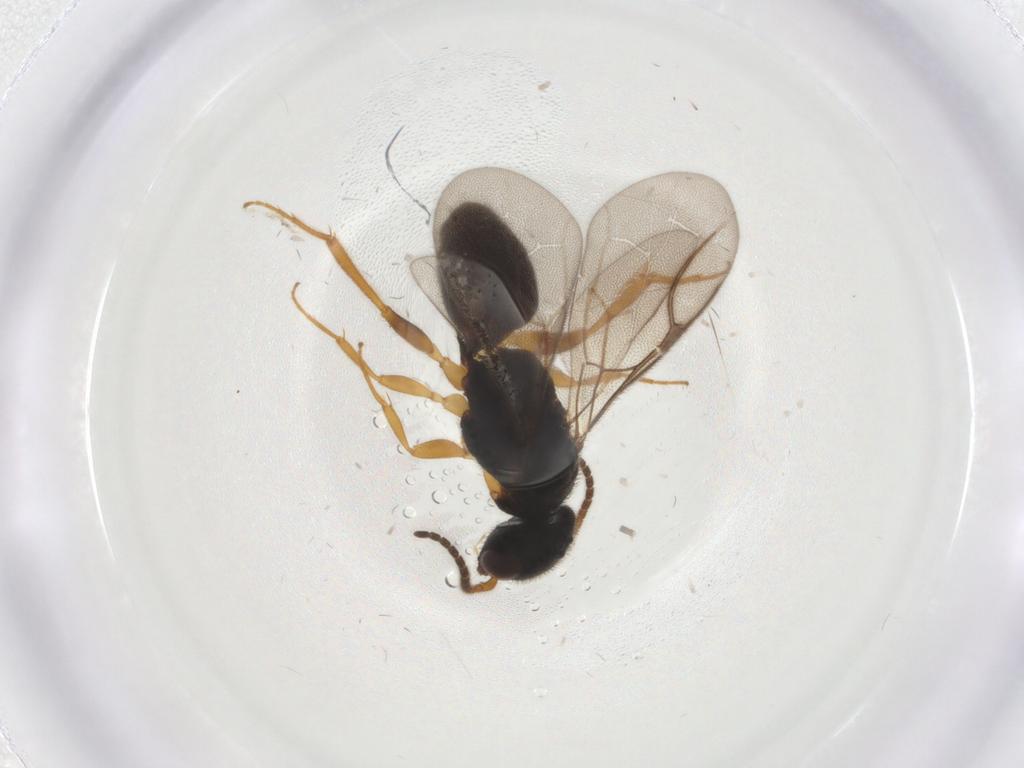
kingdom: Animalia
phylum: Arthropoda
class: Insecta
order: Hymenoptera
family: Bethylidae
